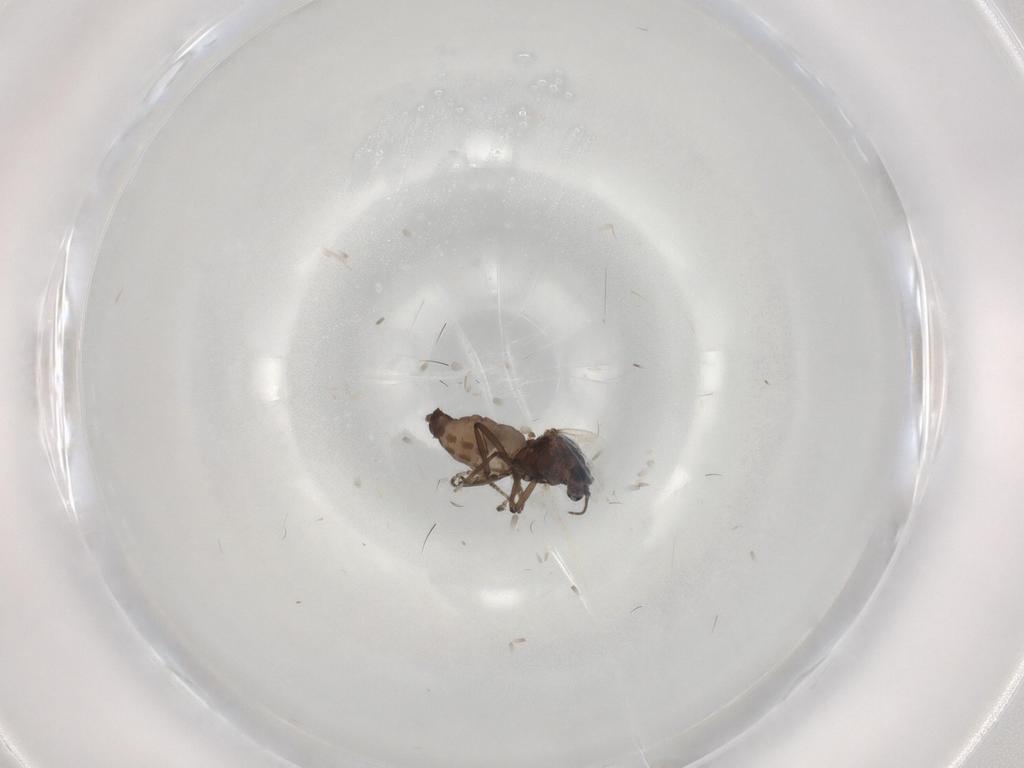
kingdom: Animalia
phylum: Arthropoda
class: Insecta
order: Diptera
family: Ceratopogonidae
